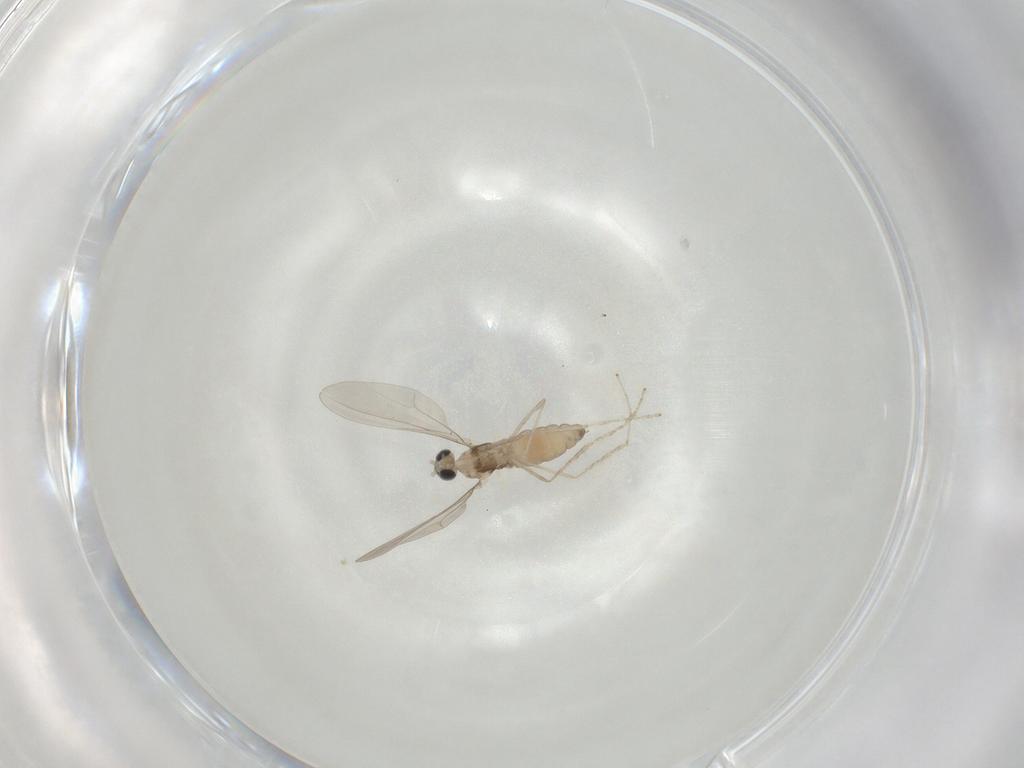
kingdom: Animalia
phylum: Arthropoda
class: Insecta
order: Diptera
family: Cecidomyiidae
